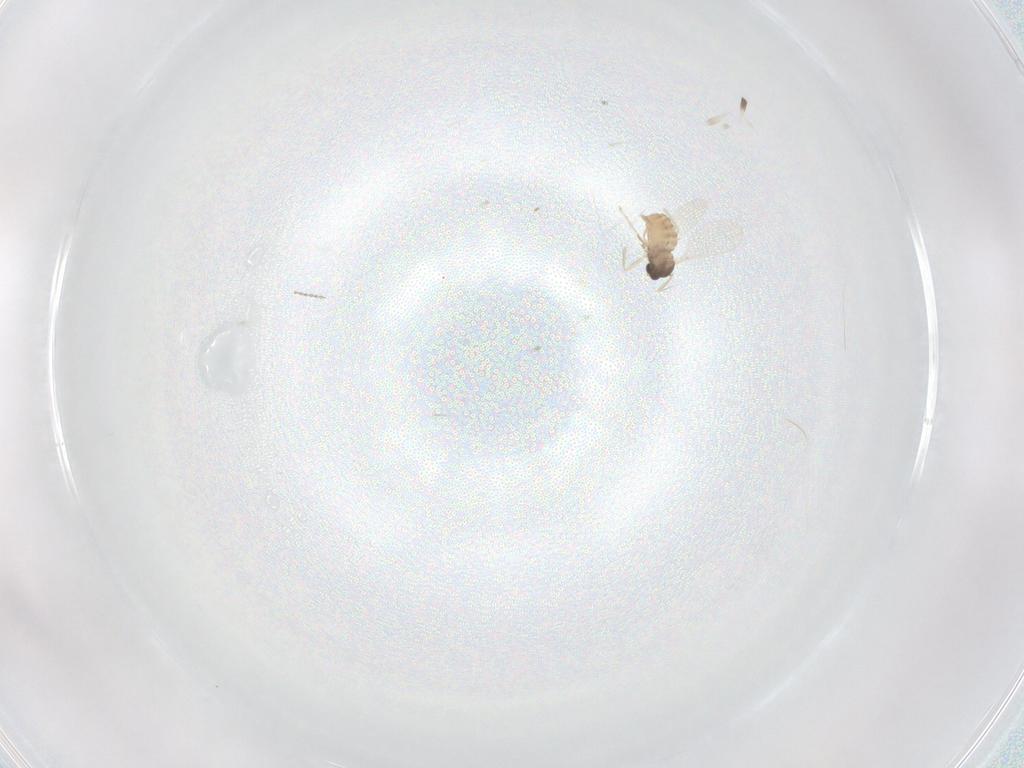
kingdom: Animalia
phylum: Arthropoda
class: Insecta
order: Diptera
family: Cecidomyiidae
